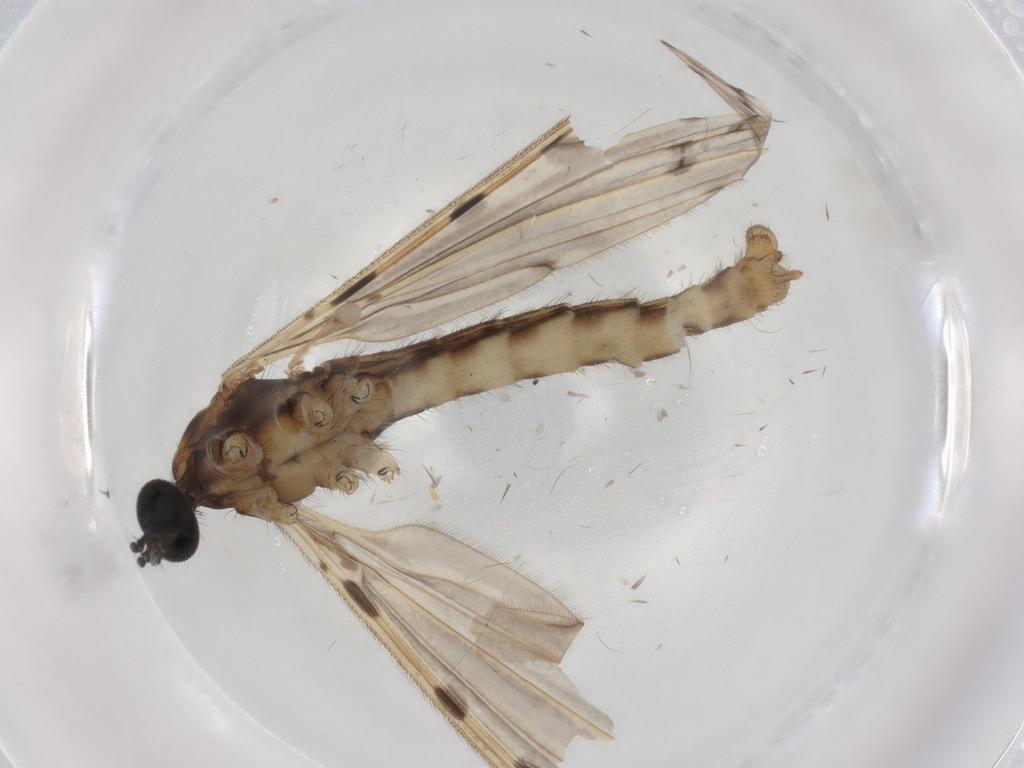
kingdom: Animalia
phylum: Arthropoda
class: Insecta
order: Diptera
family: Ceratopogonidae
